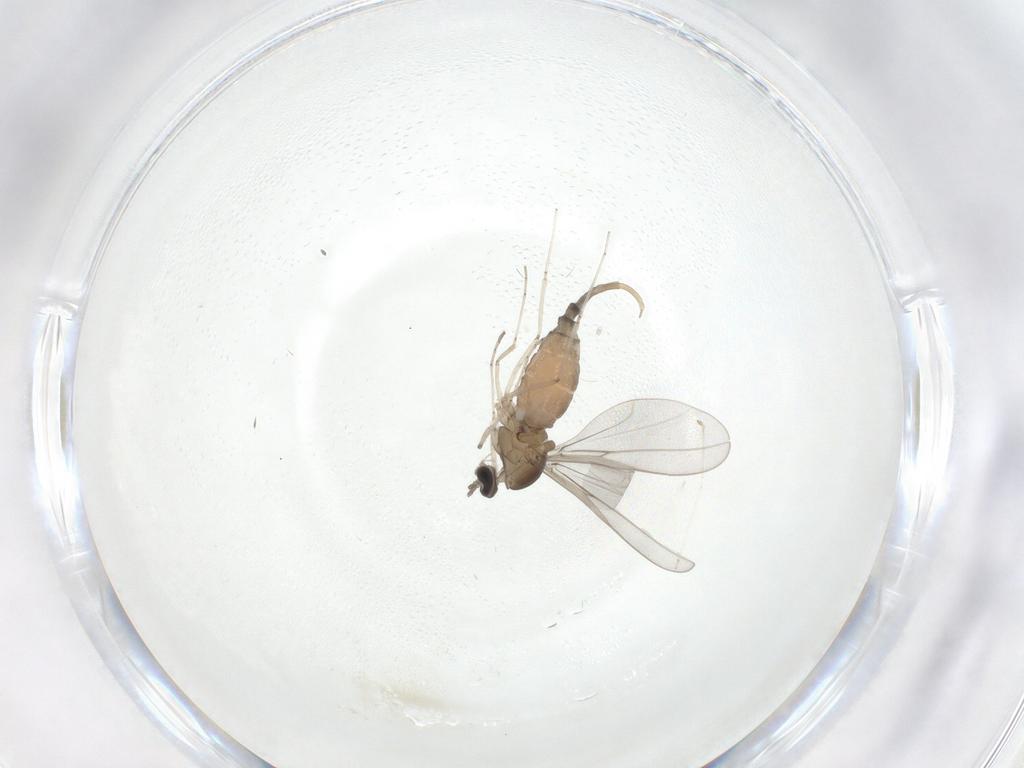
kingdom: Animalia
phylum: Arthropoda
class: Insecta
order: Diptera
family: Cecidomyiidae
